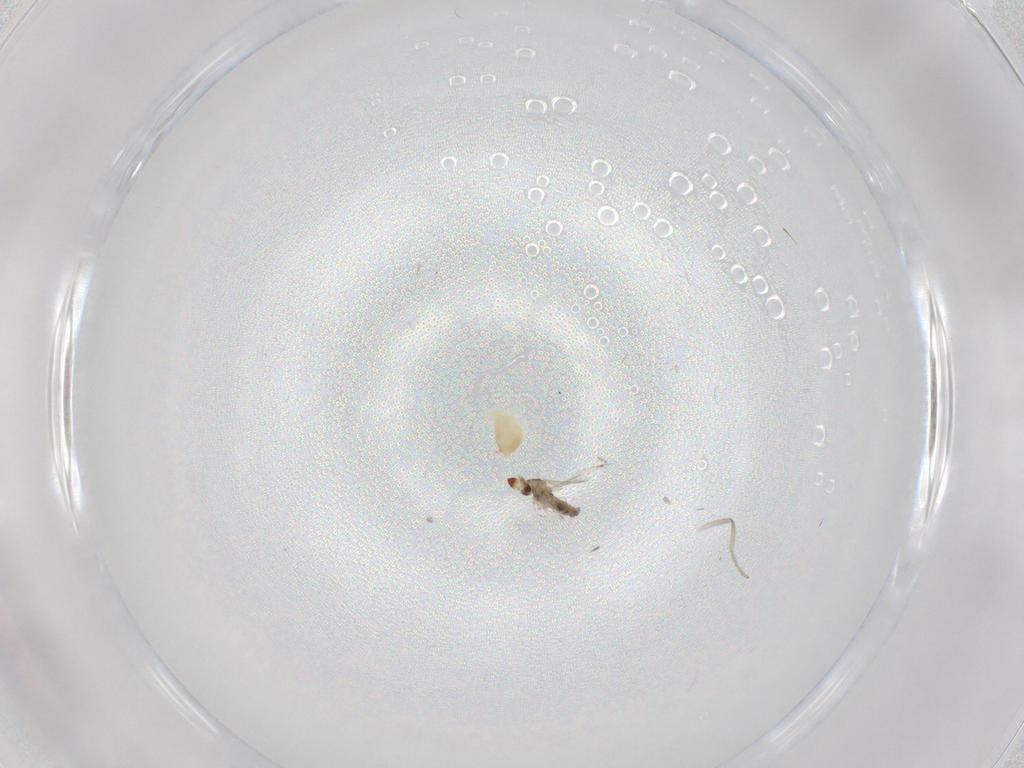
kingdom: Animalia
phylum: Arthropoda
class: Insecta
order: Diptera
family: Cecidomyiidae
